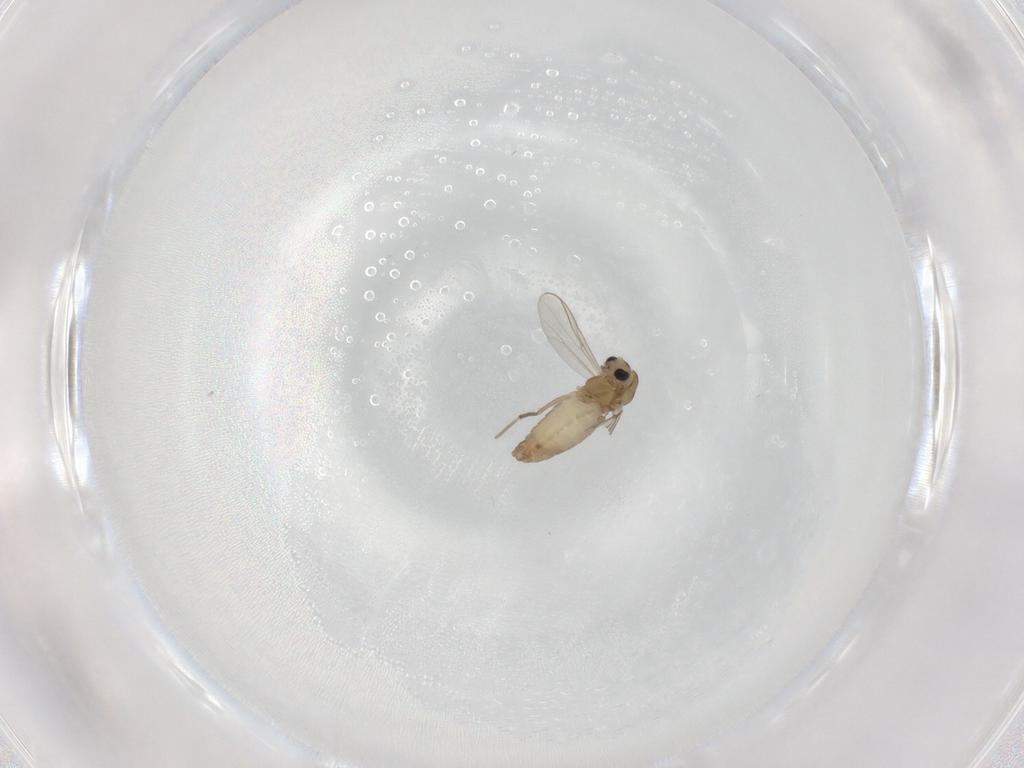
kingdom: Animalia
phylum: Arthropoda
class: Insecta
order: Diptera
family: Chironomidae
